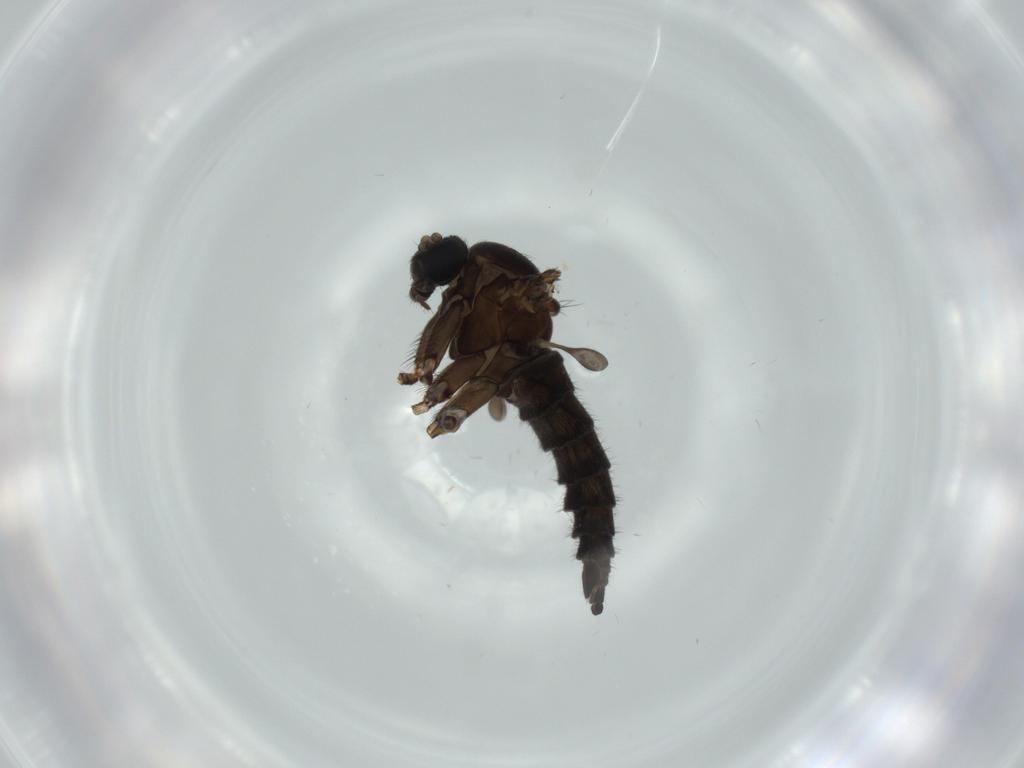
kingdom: Animalia
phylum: Arthropoda
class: Insecta
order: Diptera
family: Sciaridae
